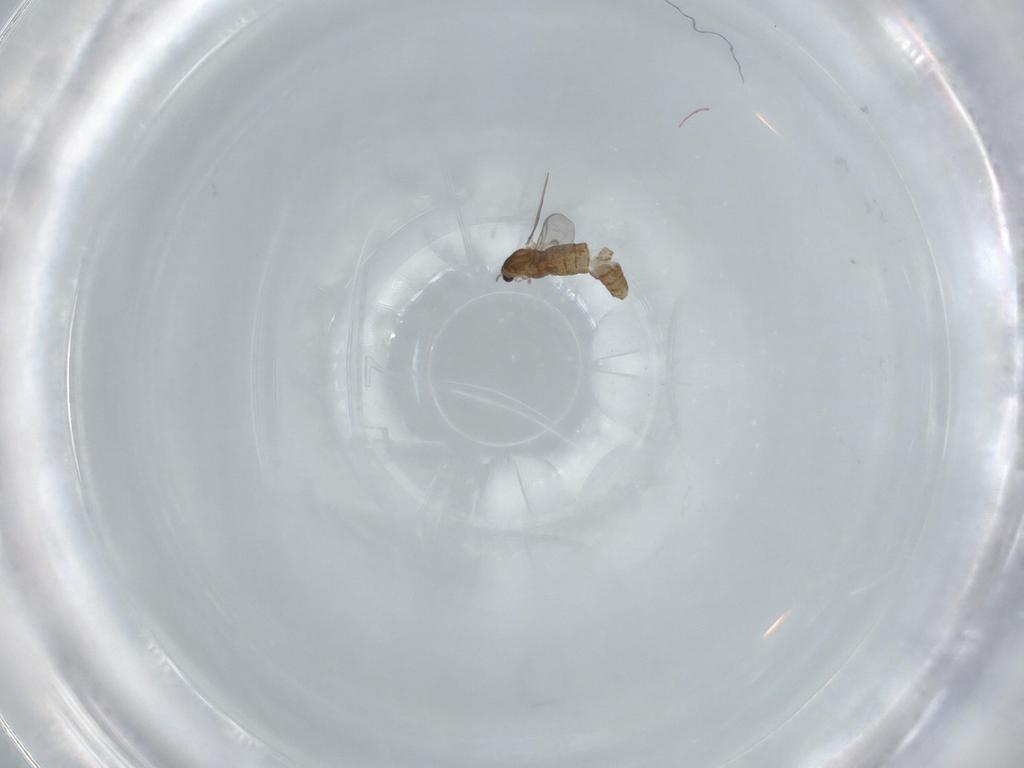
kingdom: Animalia
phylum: Arthropoda
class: Insecta
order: Diptera
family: Chironomidae
